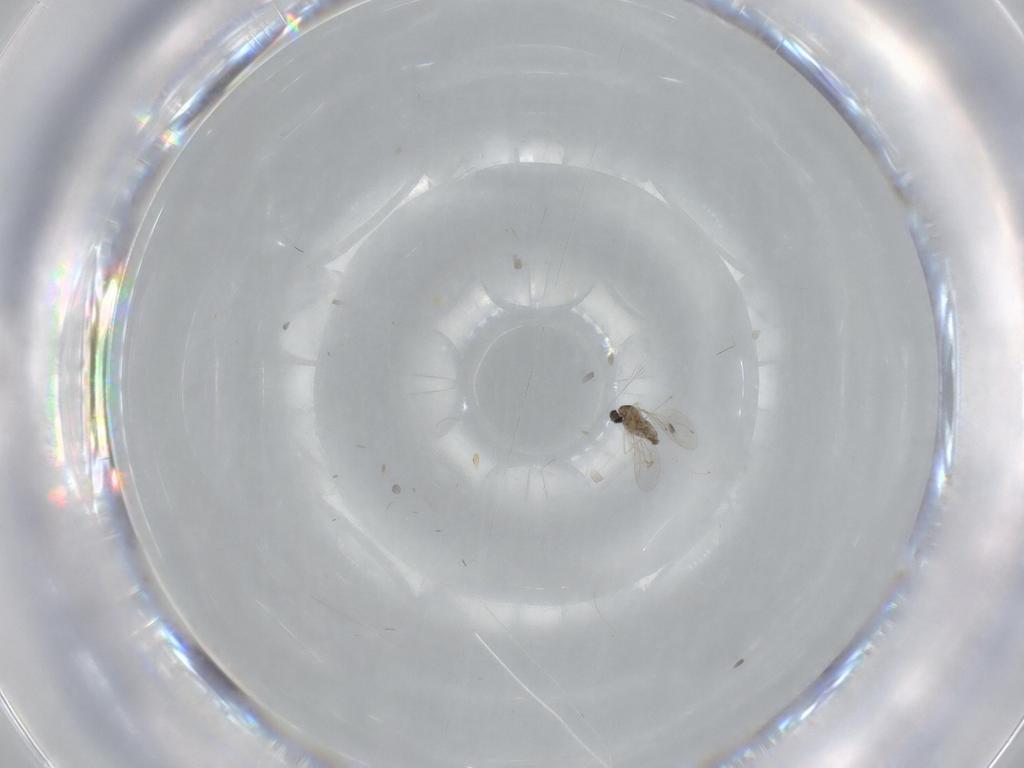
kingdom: Animalia
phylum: Arthropoda
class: Insecta
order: Diptera
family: Cecidomyiidae
